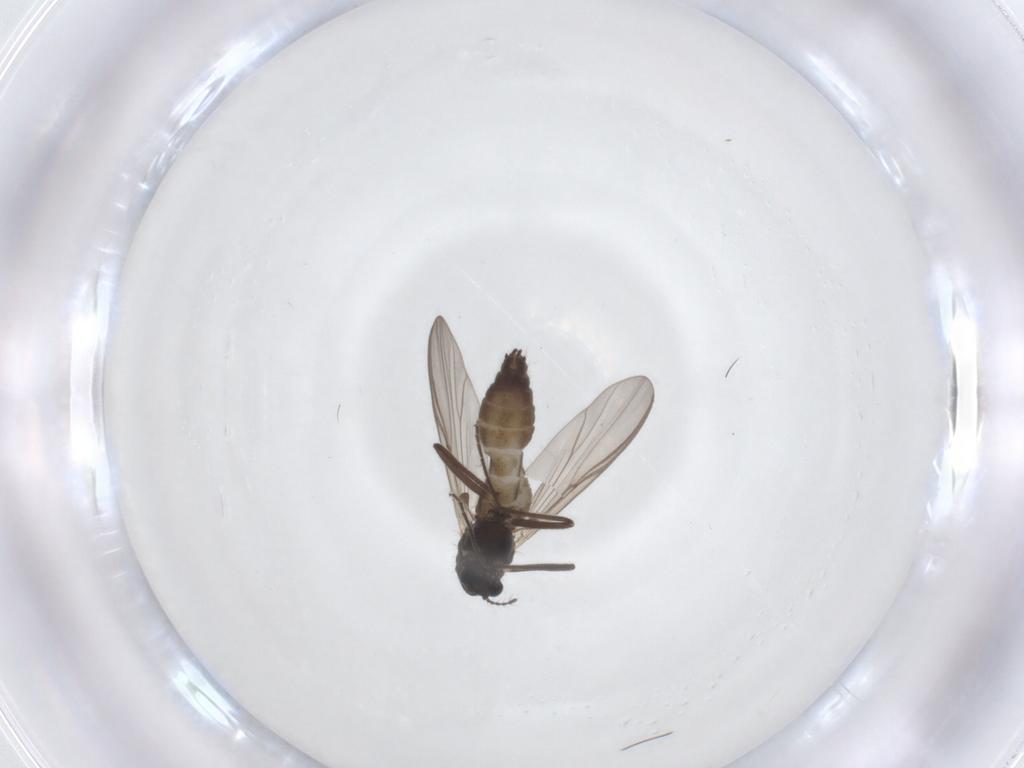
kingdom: Animalia
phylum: Arthropoda
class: Insecta
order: Diptera
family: Chironomidae
